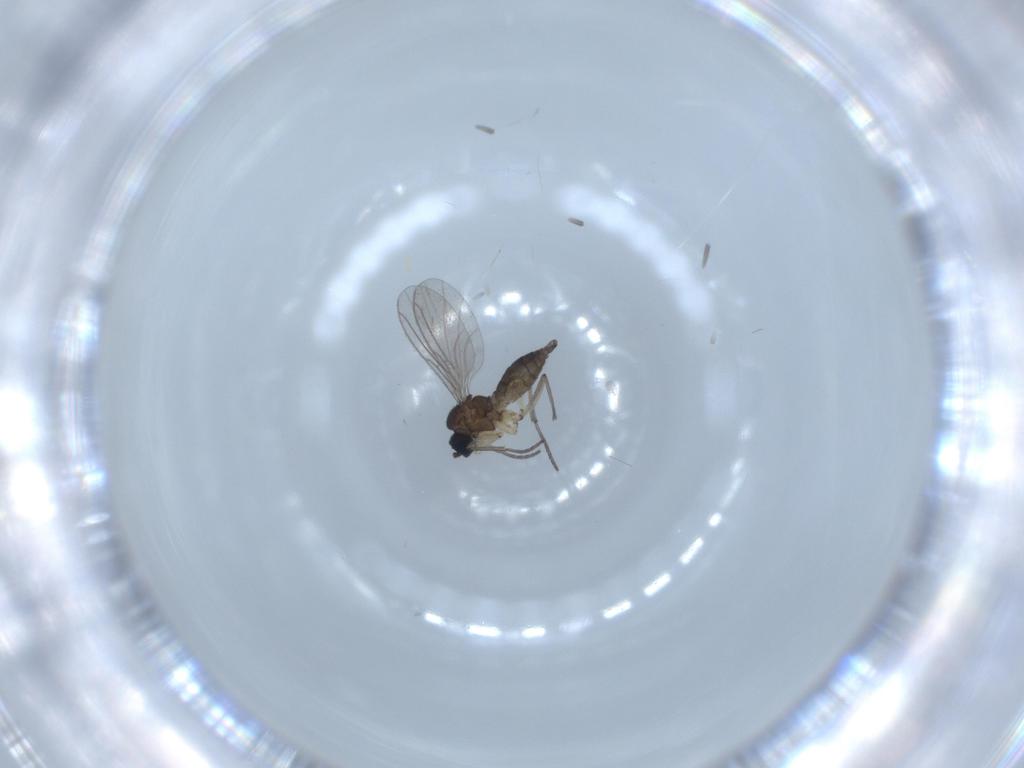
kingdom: Animalia
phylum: Arthropoda
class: Insecta
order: Diptera
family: Sciaridae
